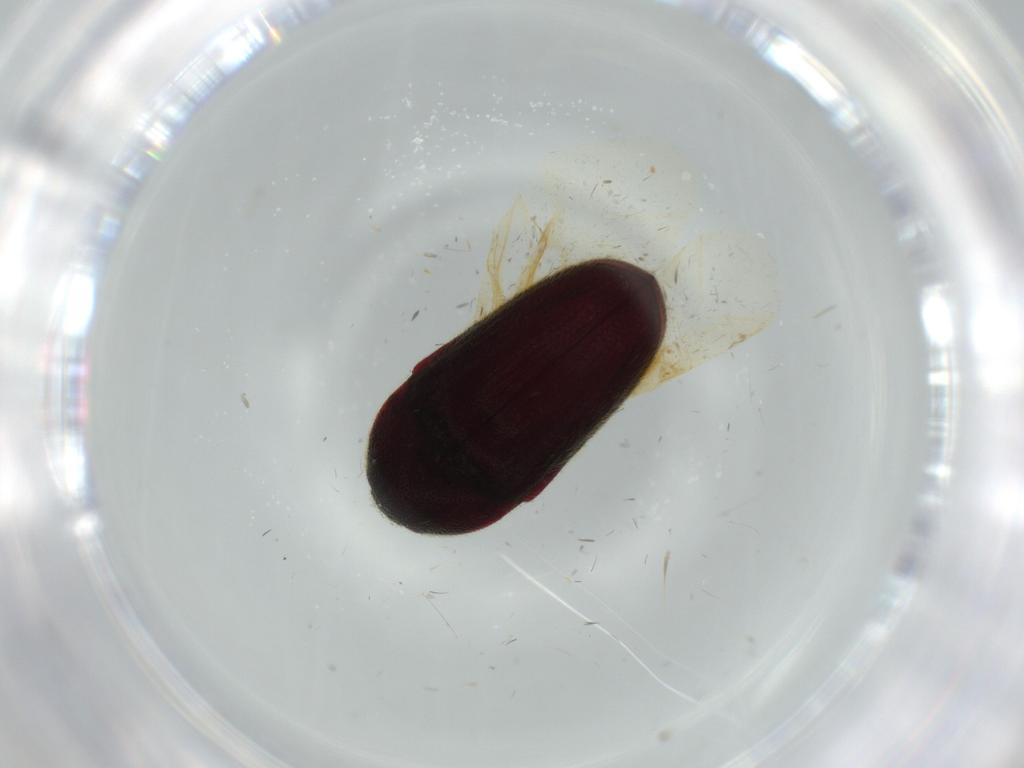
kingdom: Animalia
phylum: Arthropoda
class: Insecta
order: Coleoptera
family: Throscidae
